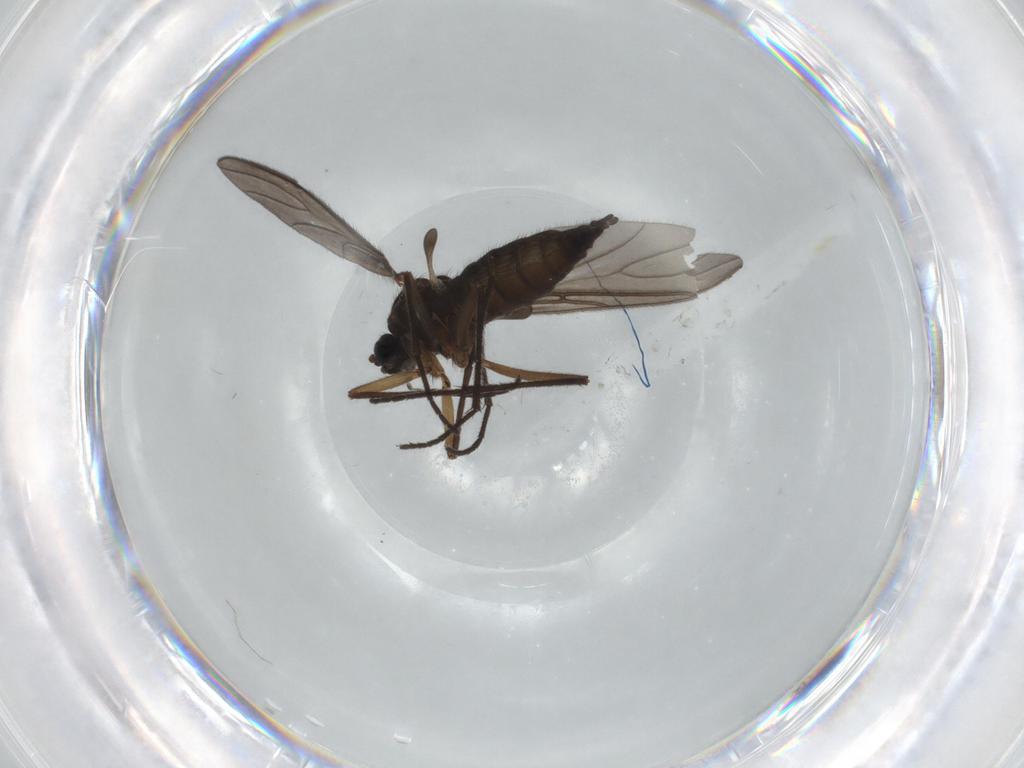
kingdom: Animalia
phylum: Arthropoda
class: Insecta
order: Diptera
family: Sciaridae
